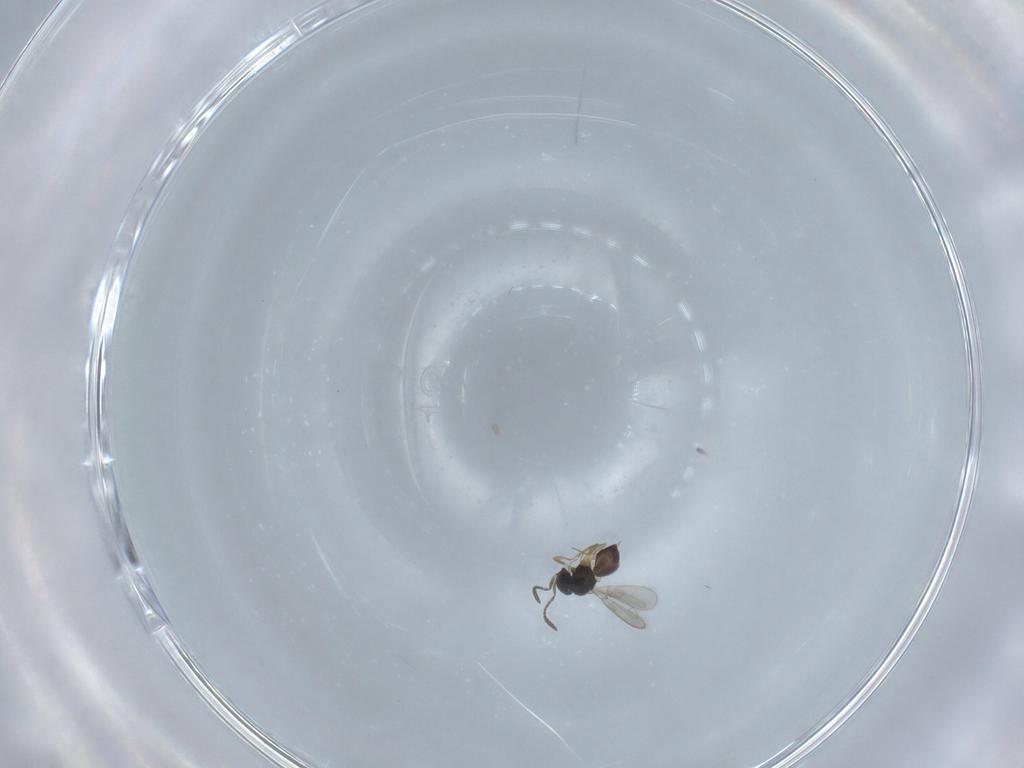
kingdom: Animalia
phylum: Arthropoda
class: Insecta
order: Hymenoptera
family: Scelionidae
